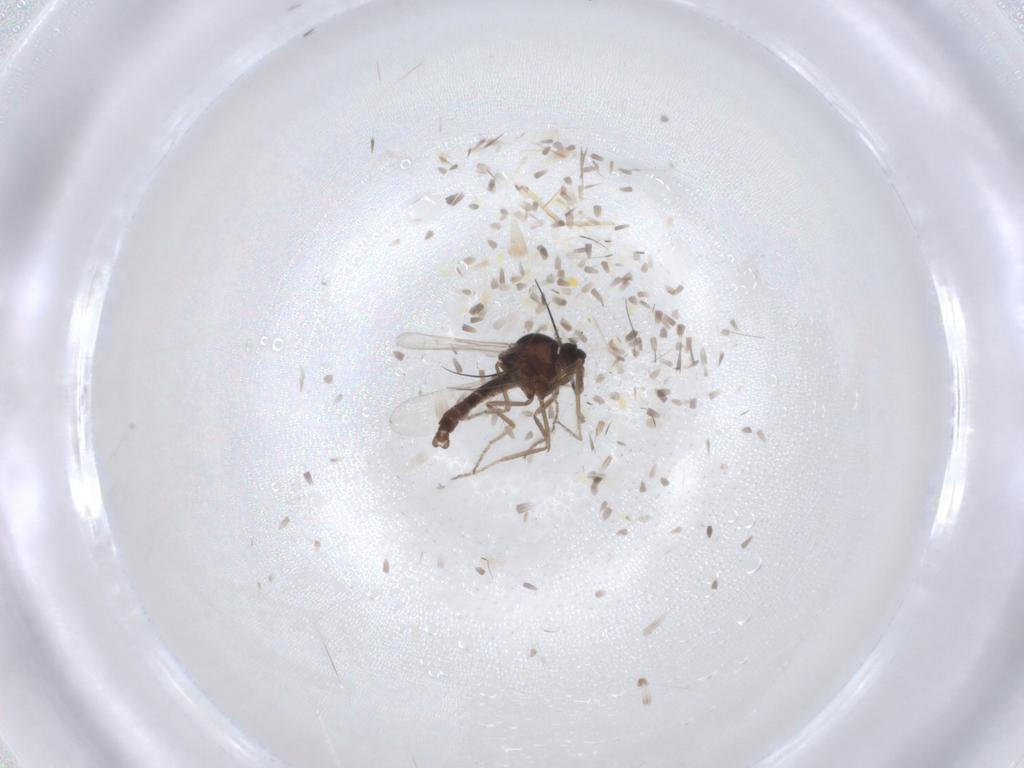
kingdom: Animalia
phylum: Arthropoda
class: Insecta
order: Diptera
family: Ceratopogonidae
